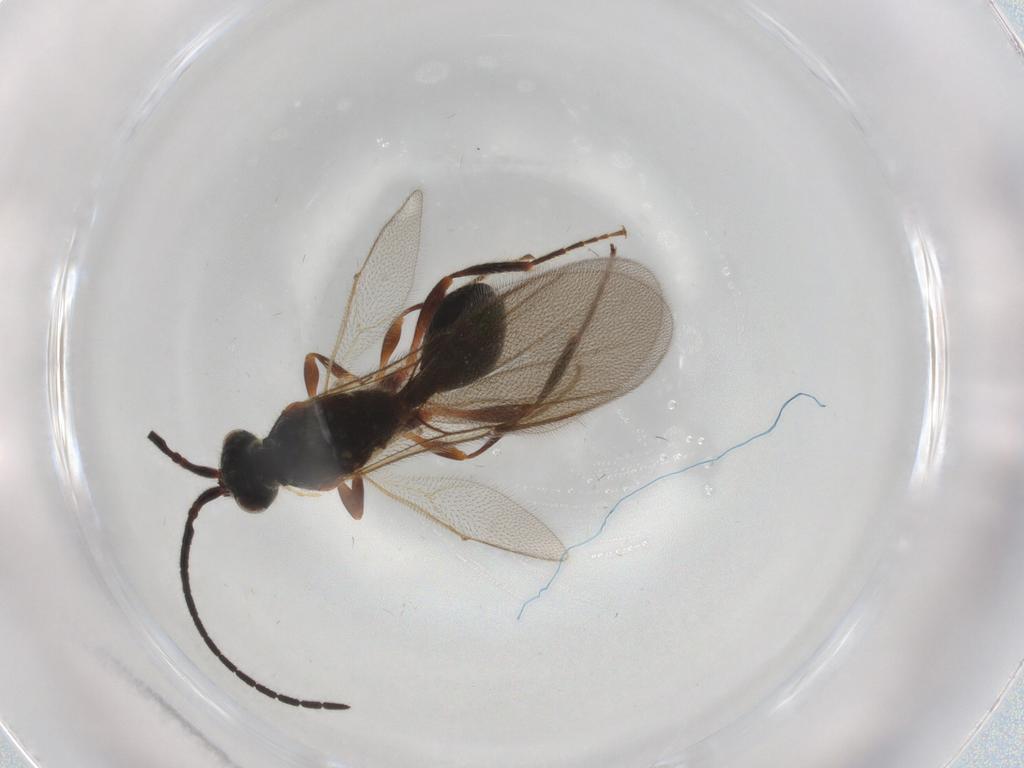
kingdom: Animalia
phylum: Arthropoda
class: Insecta
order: Hymenoptera
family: Diapriidae
